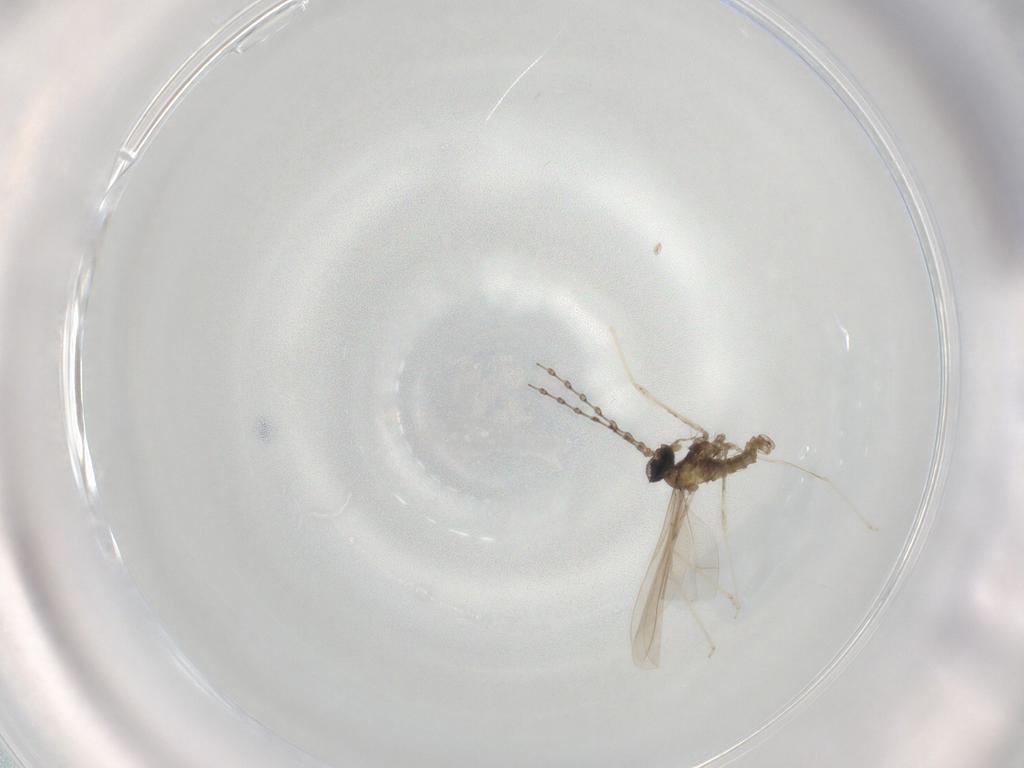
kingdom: Animalia
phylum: Arthropoda
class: Insecta
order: Diptera
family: Cecidomyiidae
